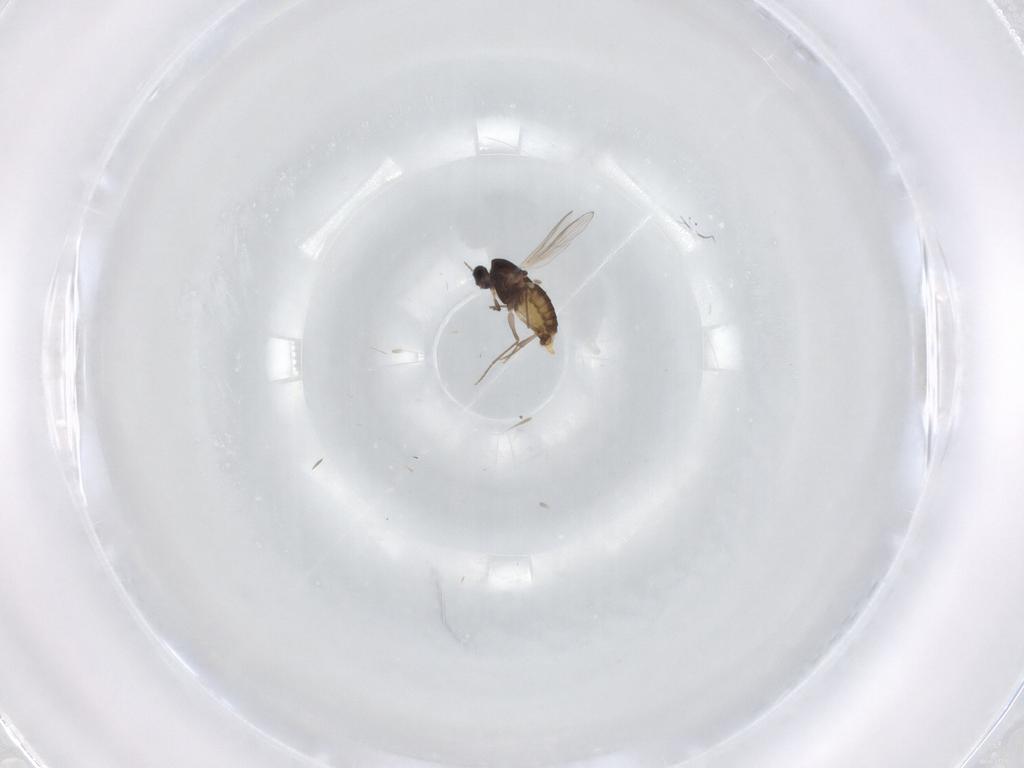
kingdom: Animalia
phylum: Arthropoda
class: Insecta
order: Diptera
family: Chironomidae
